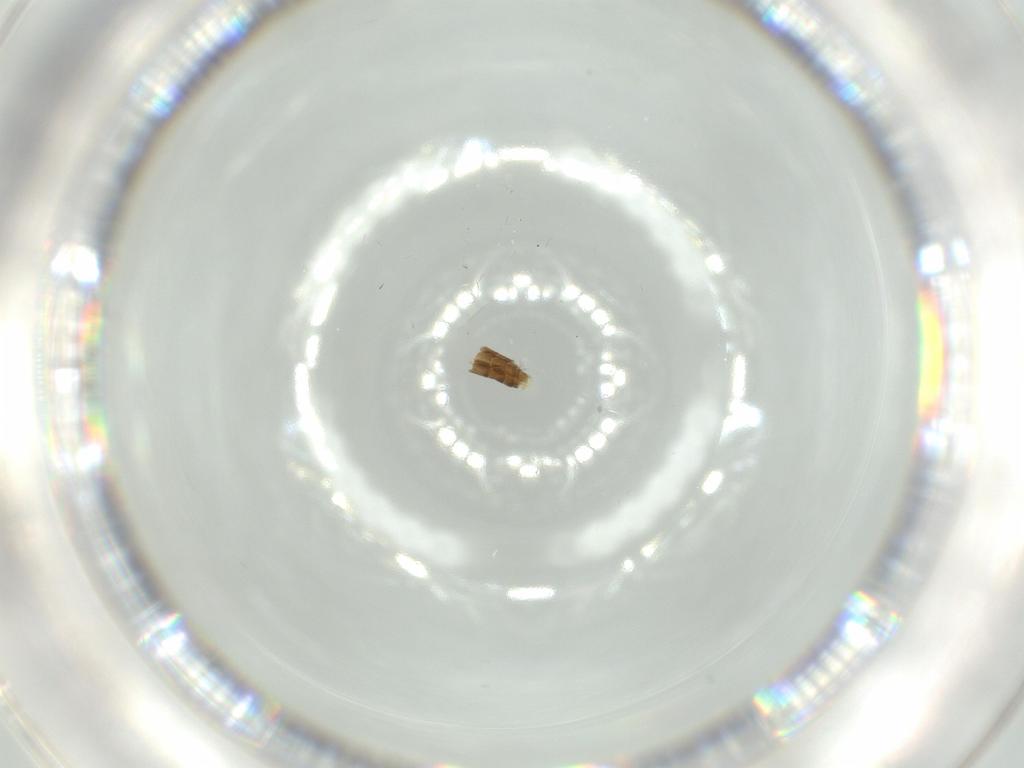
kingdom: Animalia
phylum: Arthropoda
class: Insecta
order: Diptera
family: Psychodidae
